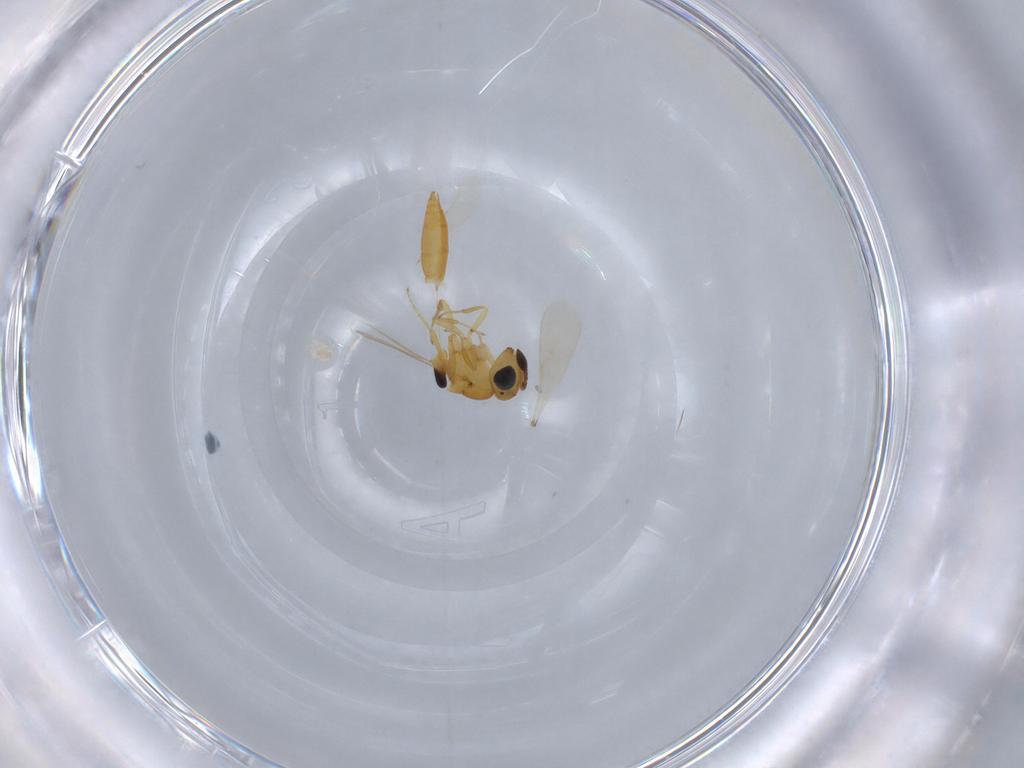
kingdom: Animalia
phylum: Arthropoda
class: Insecta
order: Hymenoptera
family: Scelionidae
